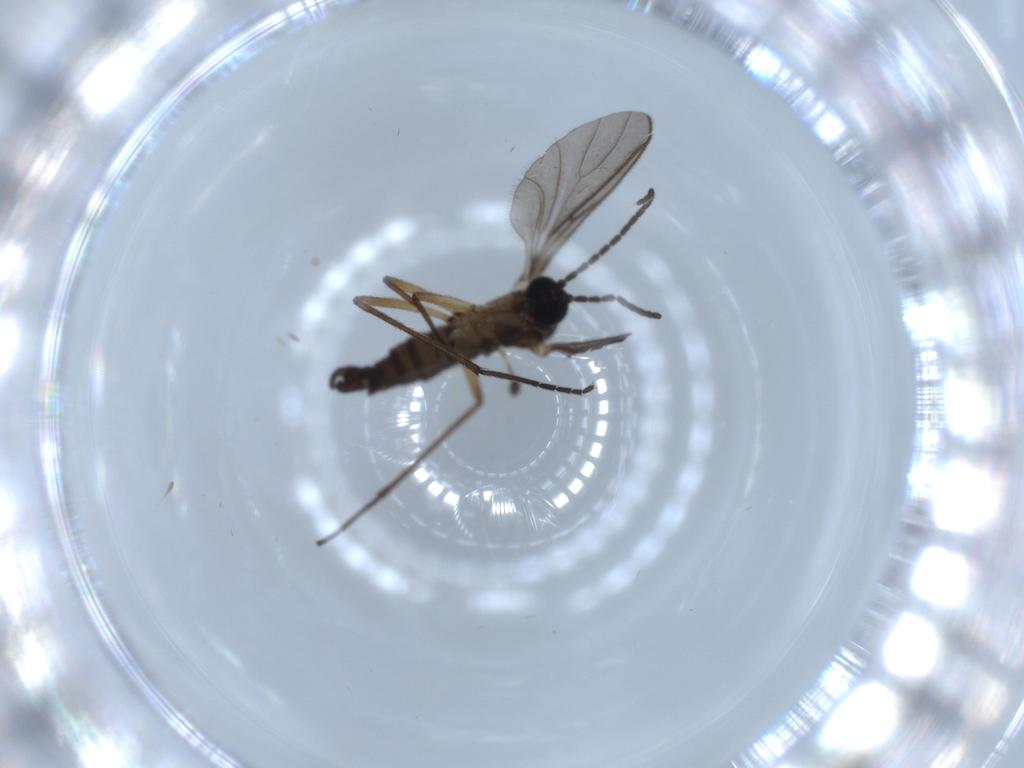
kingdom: Animalia
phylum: Arthropoda
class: Insecta
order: Diptera
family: Sciaridae
